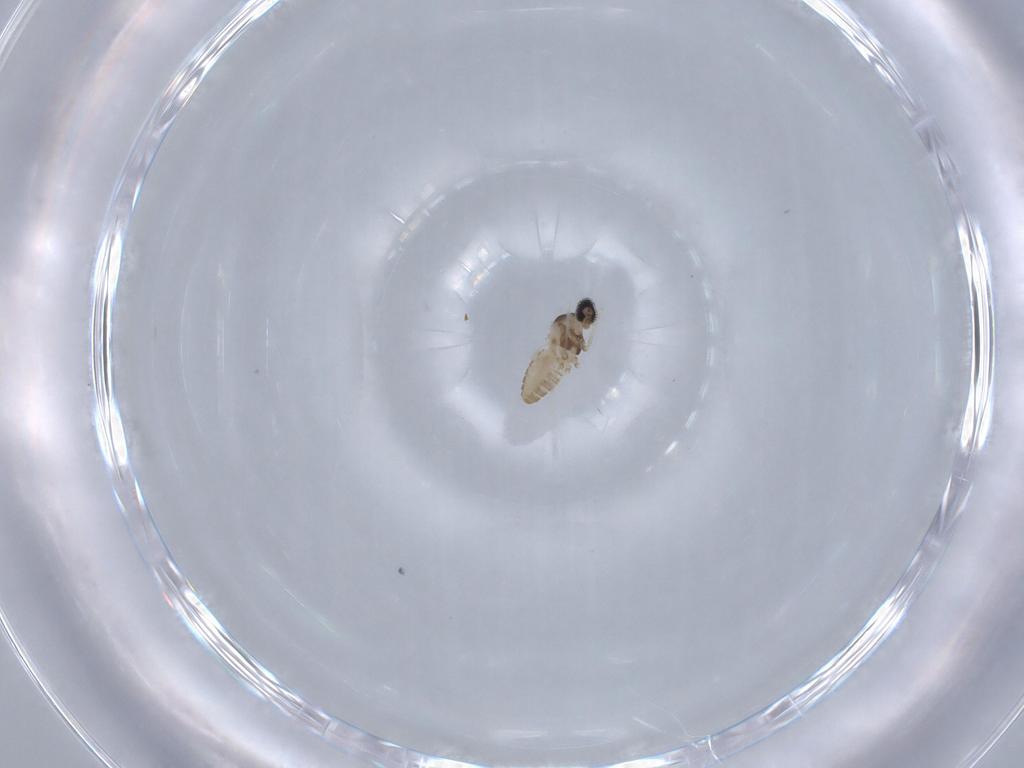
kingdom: Animalia
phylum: Arthropoda
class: Insecta
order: Diptera
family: Cecidomyiidae
